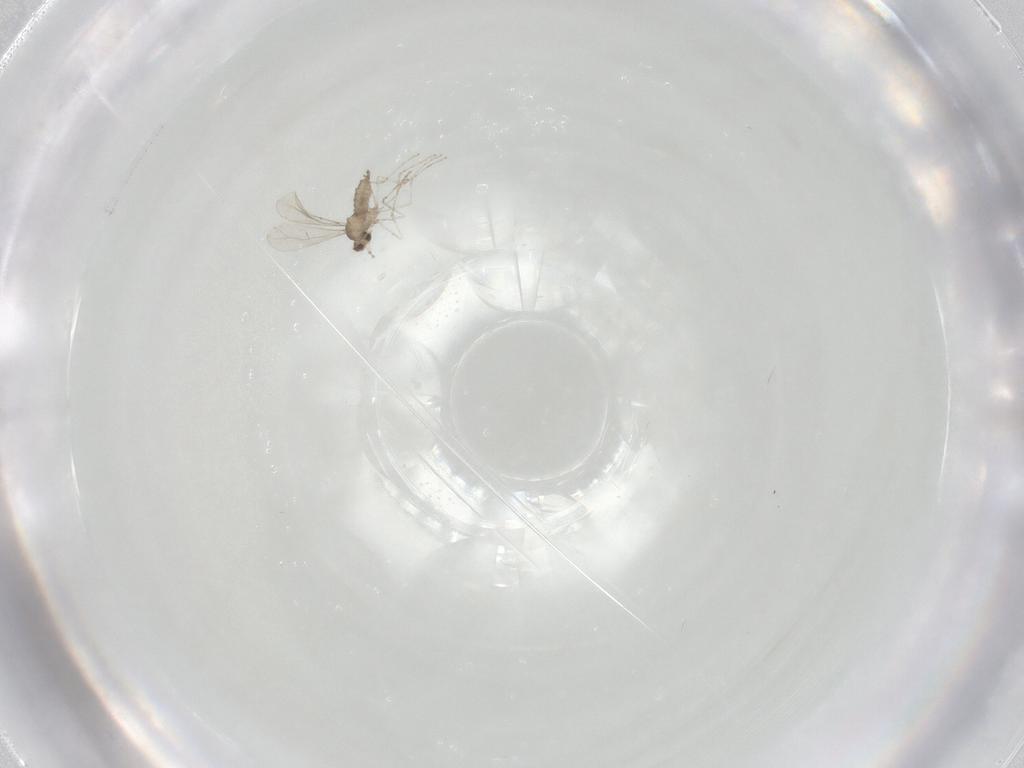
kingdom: Animalia
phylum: Arthropoda
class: Insecta
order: Diptera
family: Cecidomyiidae
